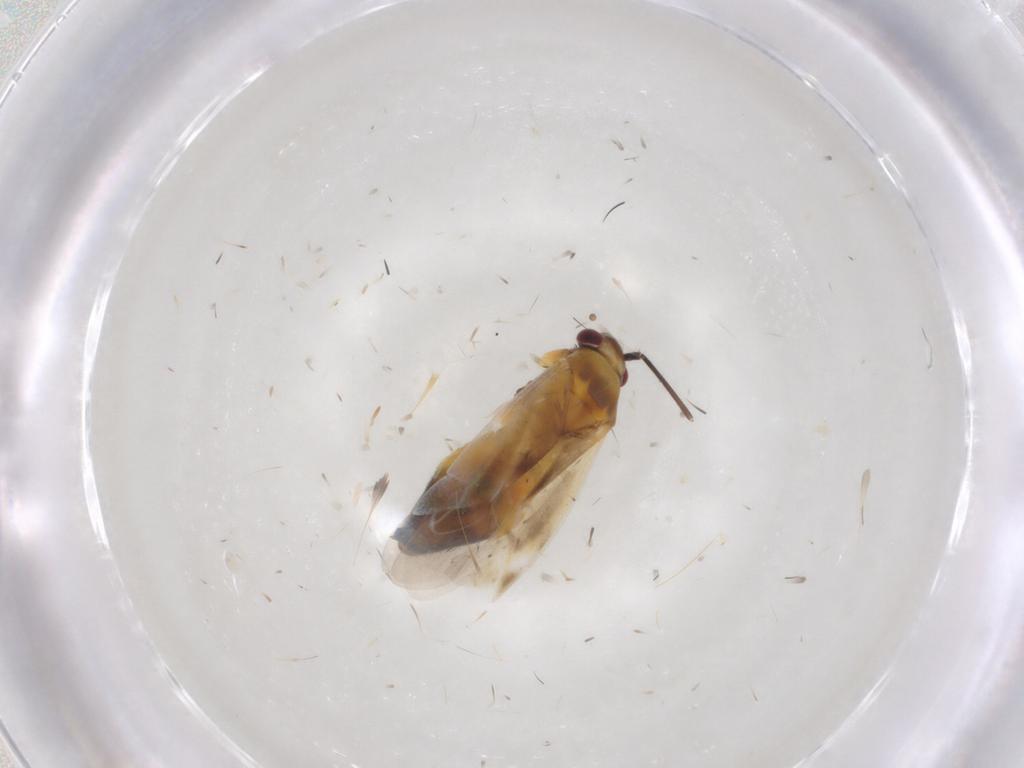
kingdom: Animalia
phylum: Arthropoda
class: Insecta
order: Hemiptera
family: Miridae
